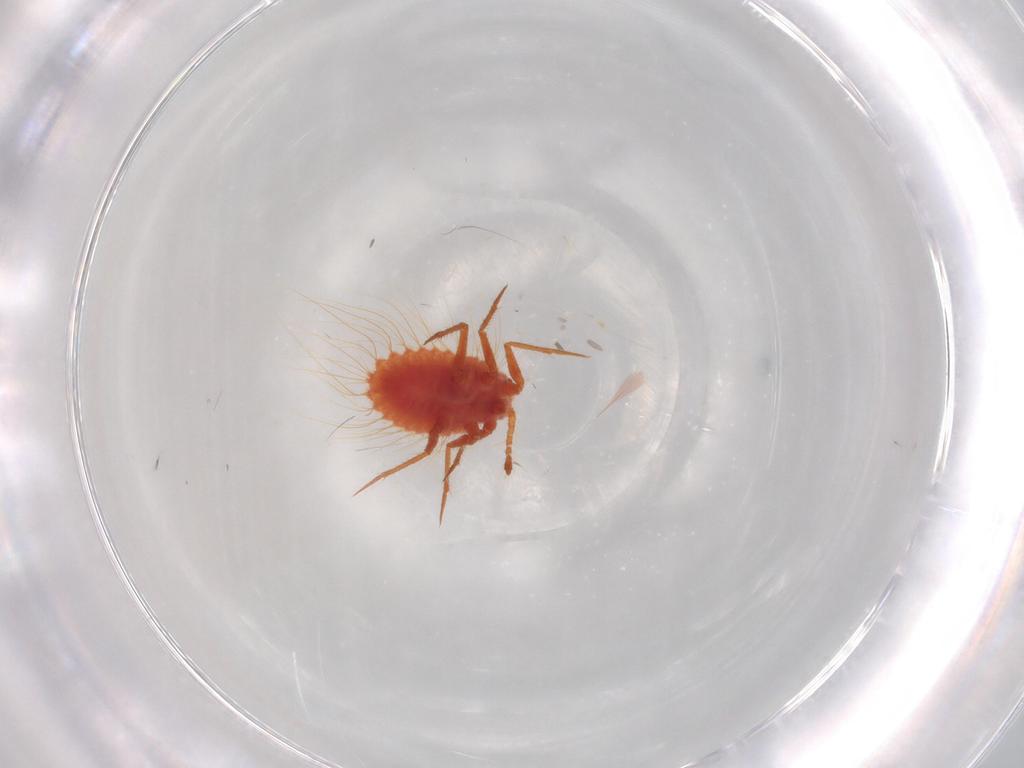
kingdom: Animalia
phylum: Arthropoda
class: Insecta
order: Hemiptera
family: Monophlebidae
